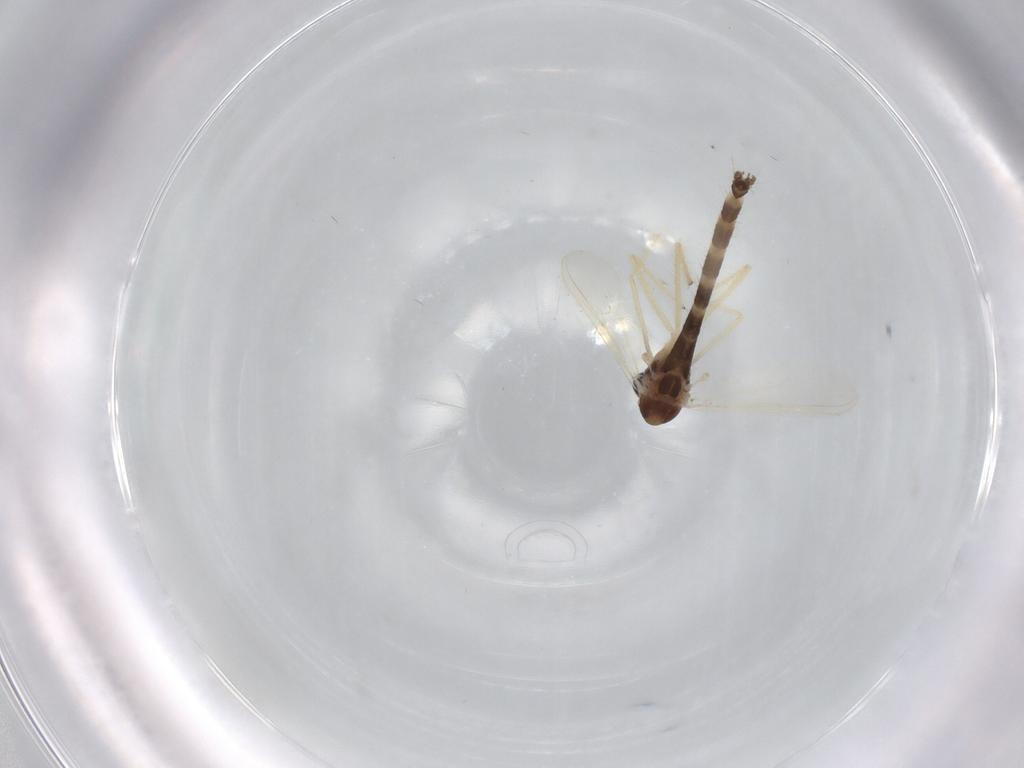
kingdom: Animalia
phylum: Arthropoda
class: Insecta
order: Diptera
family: Chironomidae
